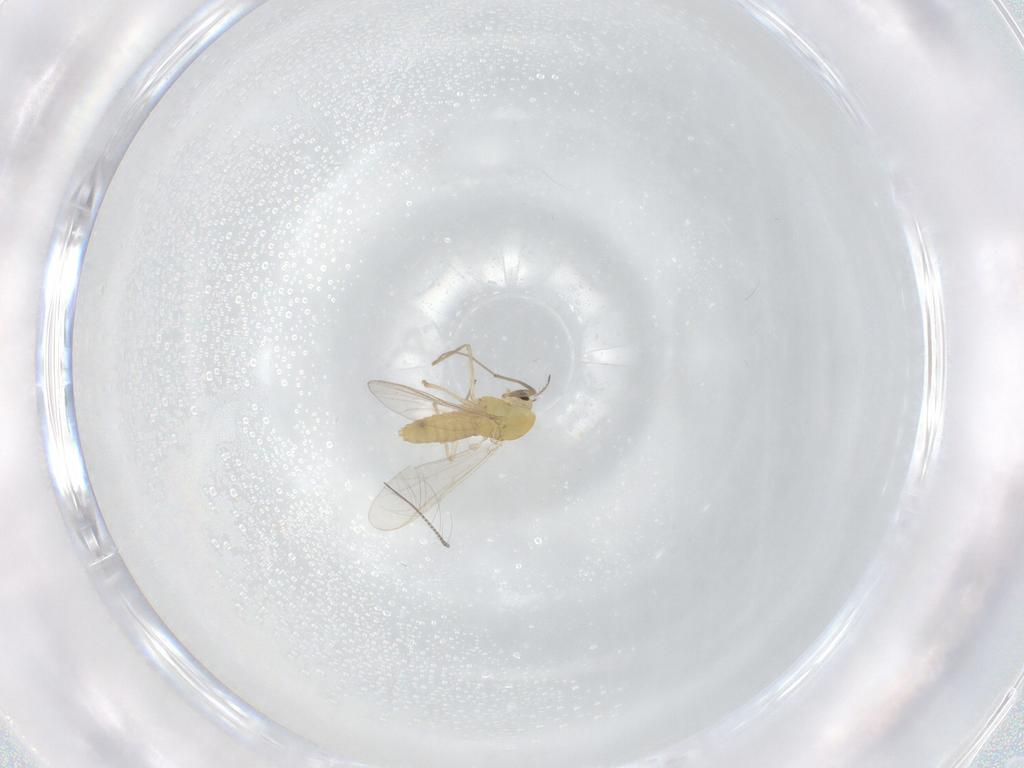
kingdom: Animalia
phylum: Arthropoda
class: Insecta
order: Diptera
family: Chironomidae
